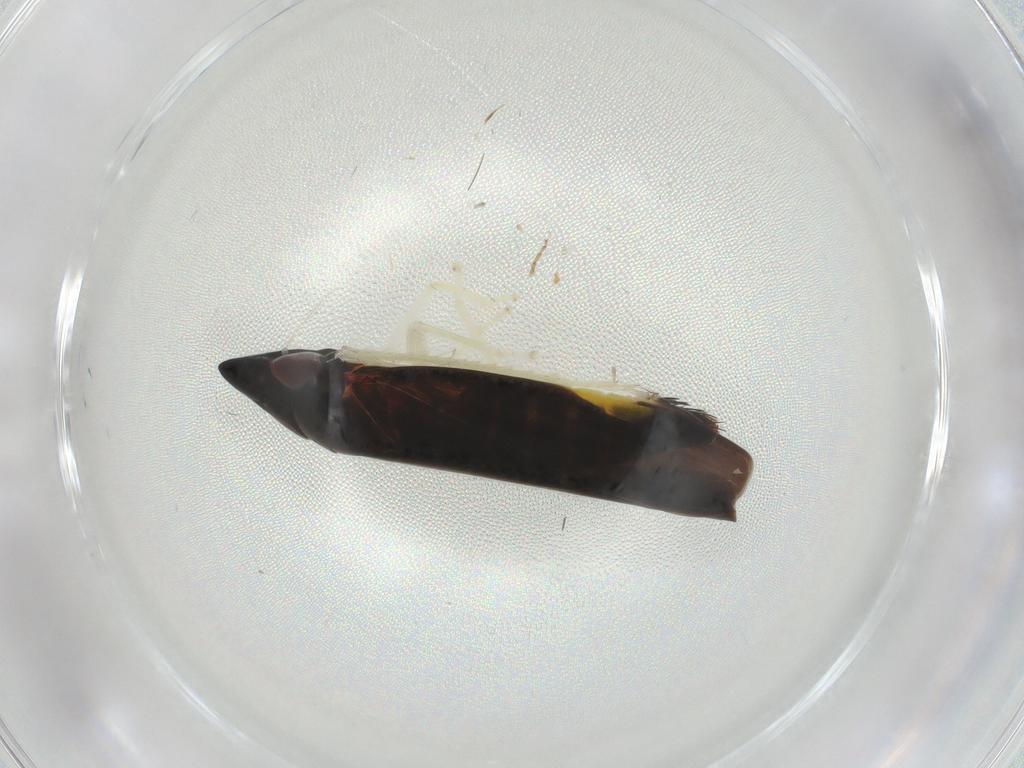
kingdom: Animalia
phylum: Arthropoda
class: Insecta
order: Hemiptera
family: Cicadellidae
